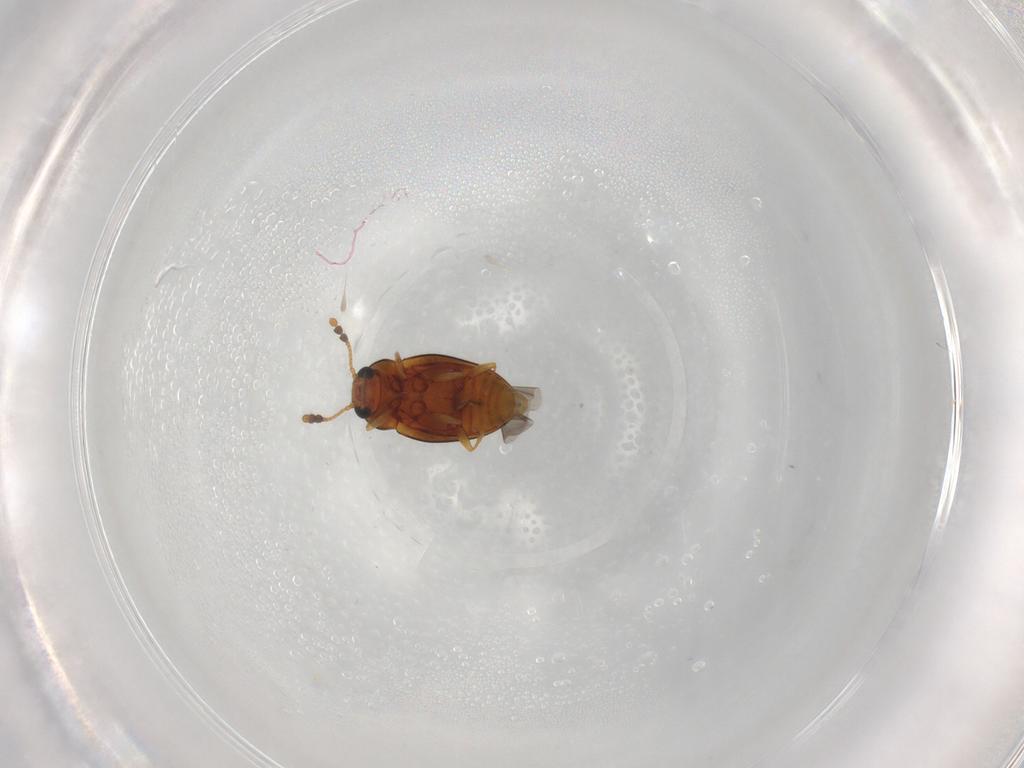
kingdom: Animalia
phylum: Arthropoda
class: Insecta
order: Coleoptera
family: Erotylidae
